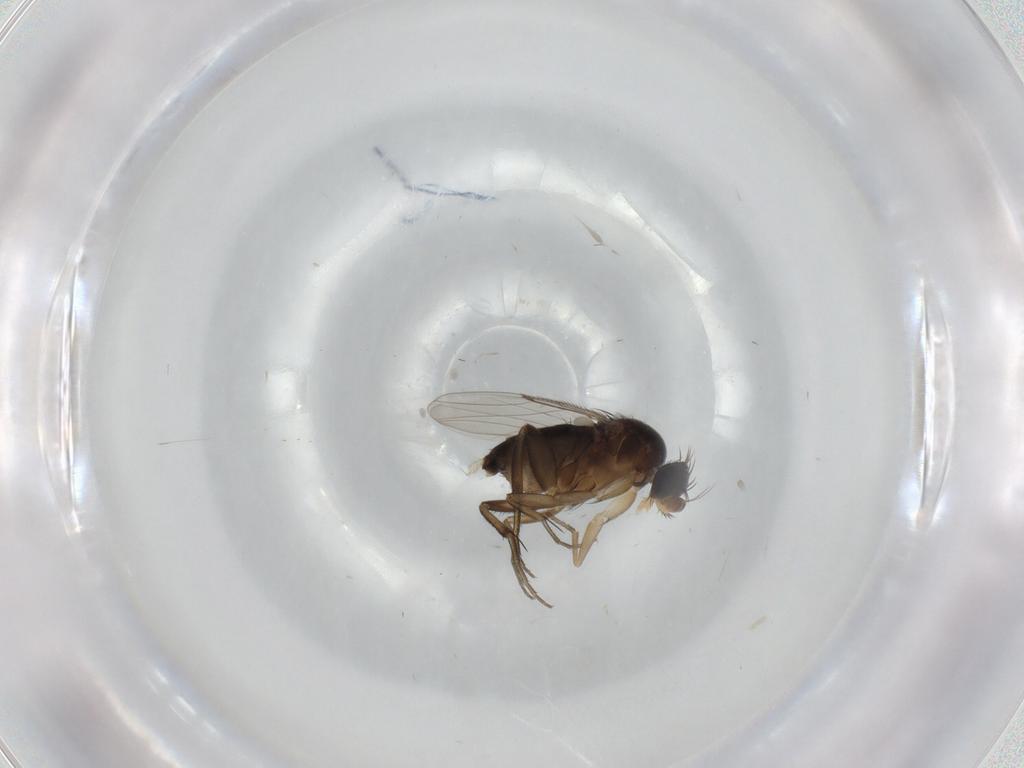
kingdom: Animalia
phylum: Arthropoda
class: Insecta
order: Diptera
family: Phoridae
